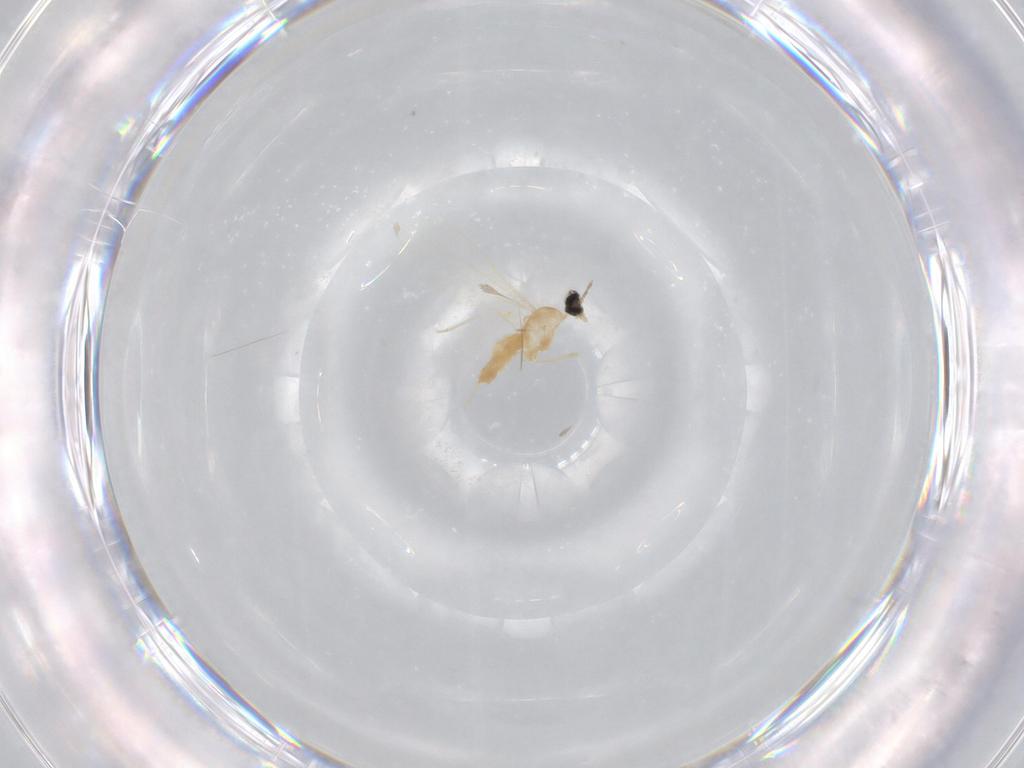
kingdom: Animalia
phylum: Arthropoda
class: Insecta
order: Diptera
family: Cecidomyiidae
